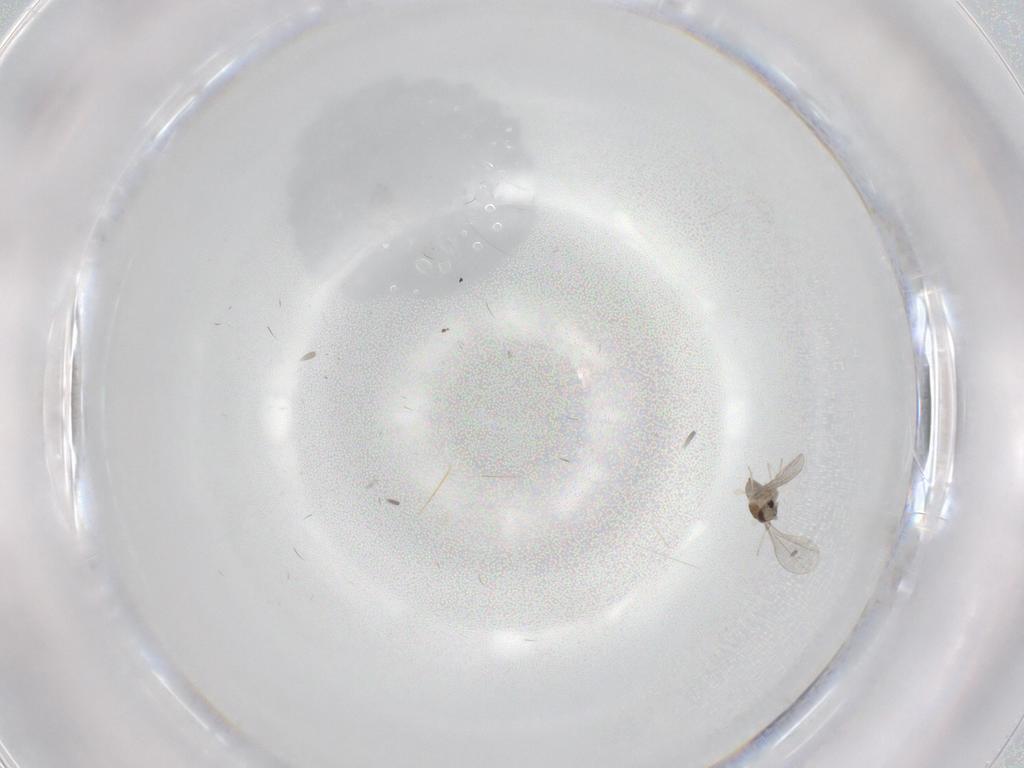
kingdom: Animalia
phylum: Arthropoda
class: Insecta
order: Diptera
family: Cecidomyiidae
